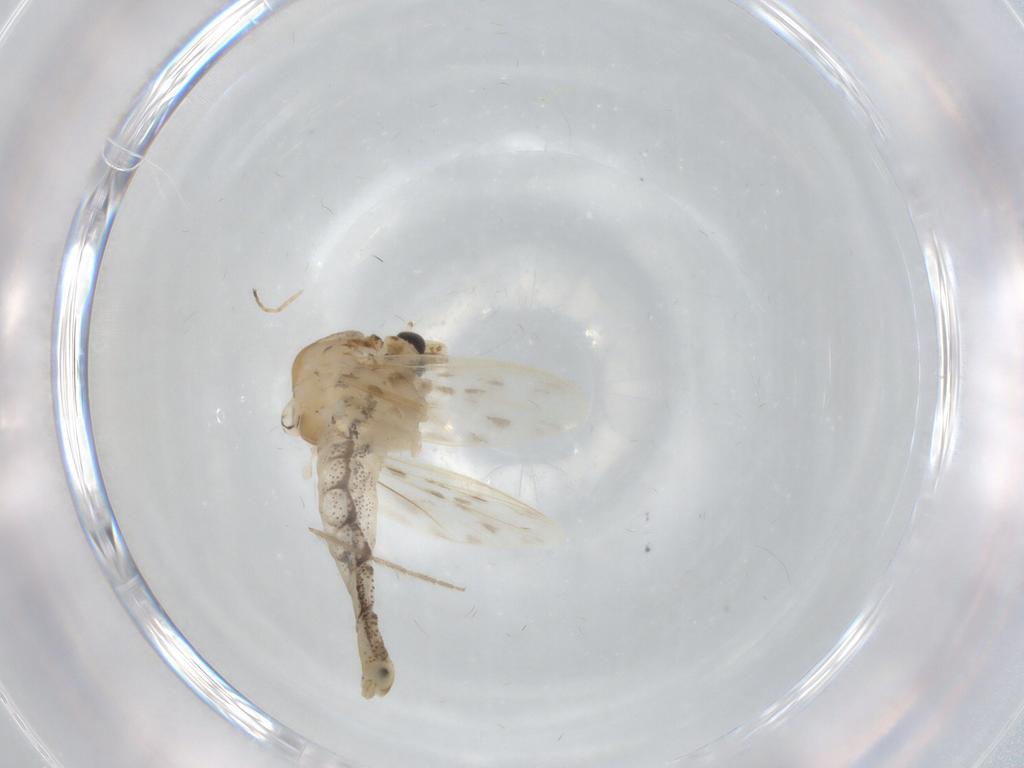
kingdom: Animalia
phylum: Arthropoda
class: Insecta
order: Diptera
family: Chaoboridae
